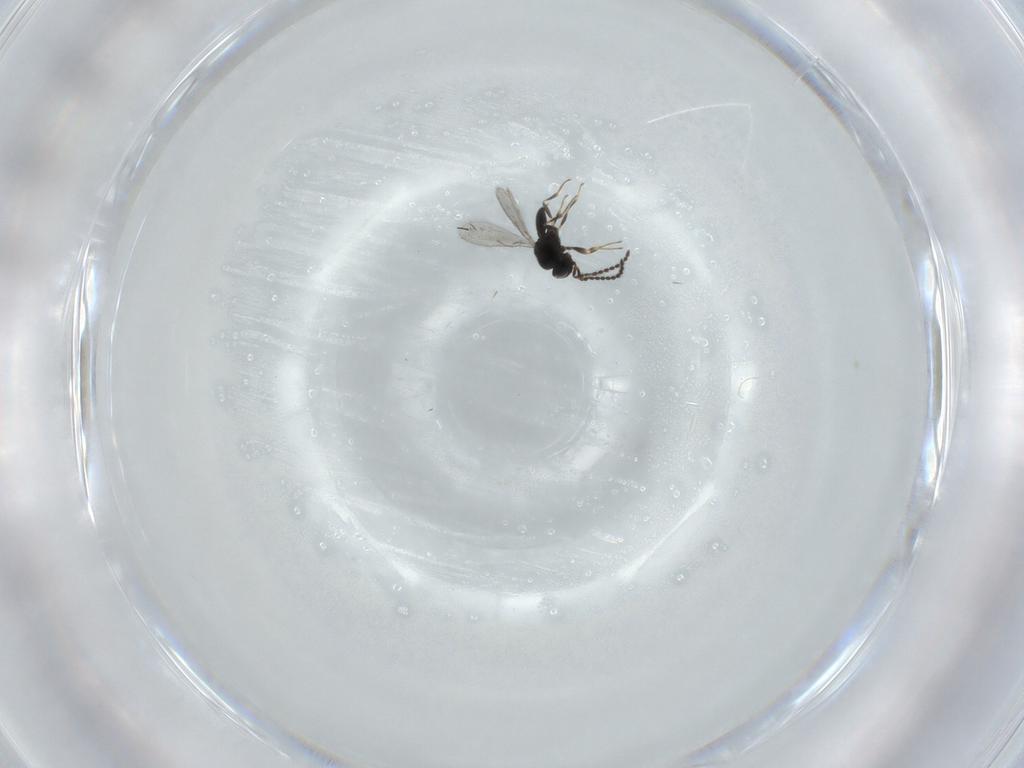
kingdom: Animalia
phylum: Arthropoda
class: Insecta
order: Hymenoptera
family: Scelionidae
